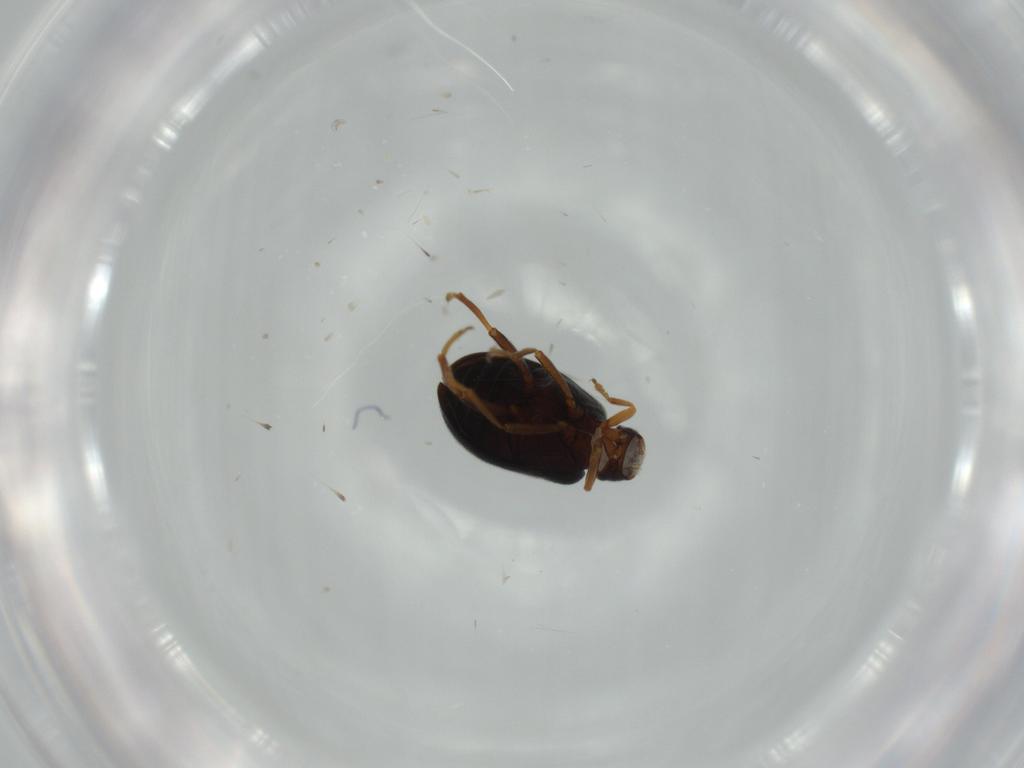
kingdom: Animalia
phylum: Arthropoda
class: Insecta
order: Coleoptera
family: Aderidae
